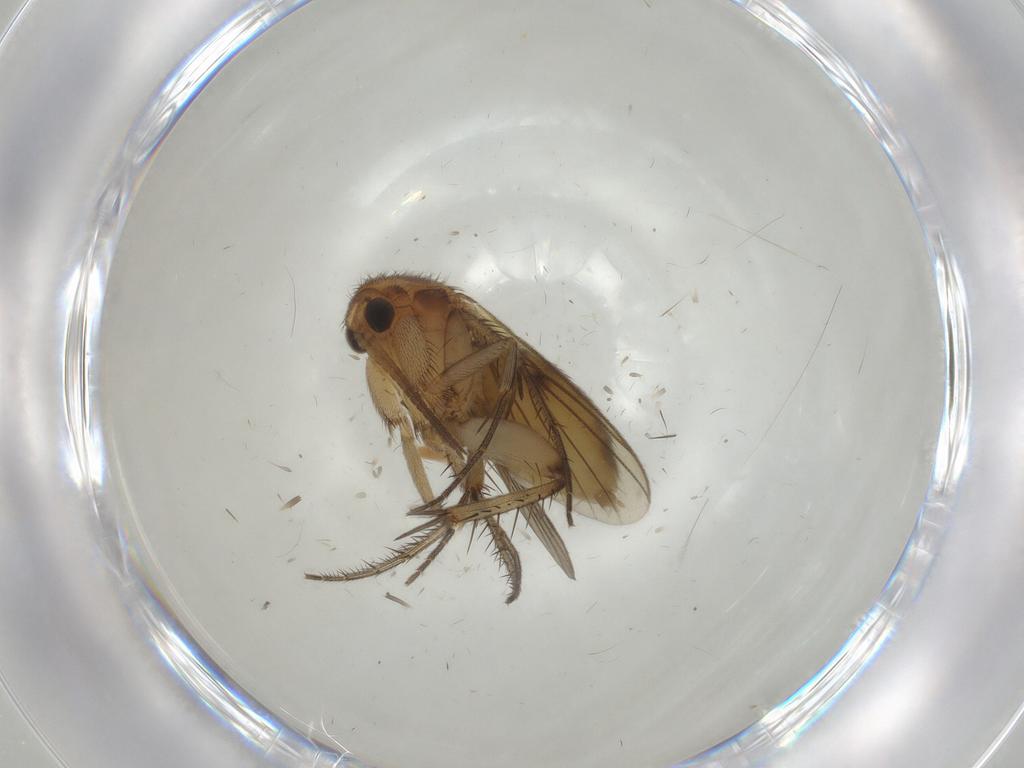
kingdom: Animalia
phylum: Arthropoda
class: Insecta
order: Diptera
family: Mycetophilidae
